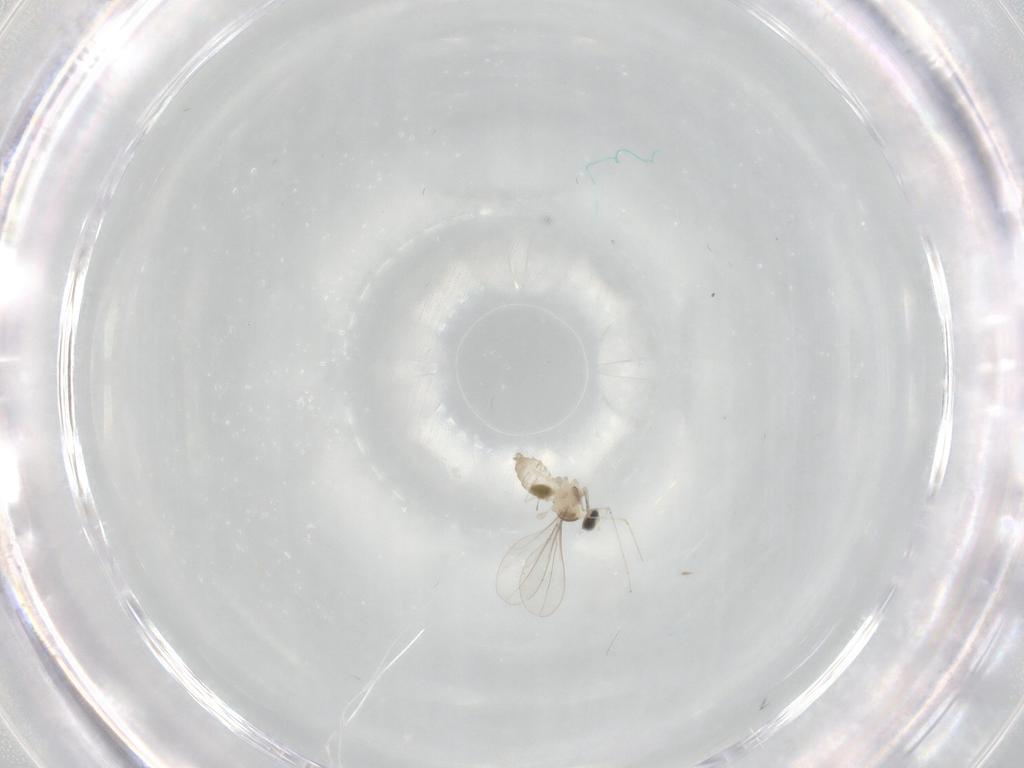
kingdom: Animalia
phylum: Arthropoda
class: Insecta
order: Diptera
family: Cecidomyiidae
